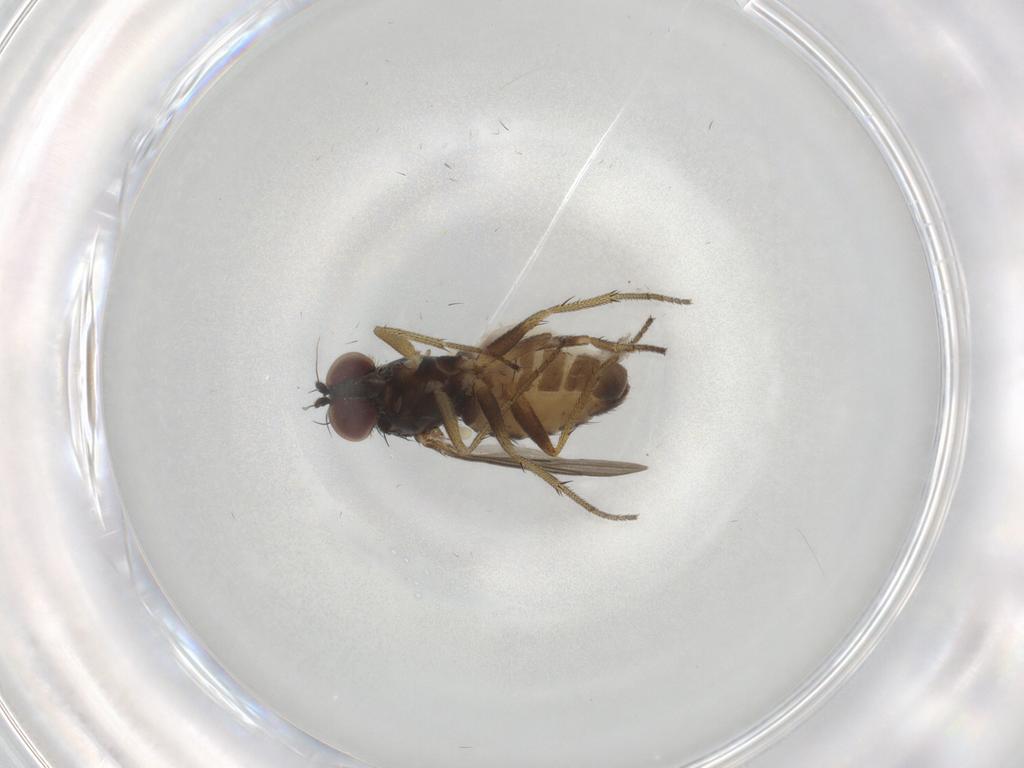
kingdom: Animalia
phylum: Arthropoda
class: Insecta
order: Diptera
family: Dolichopodidae
